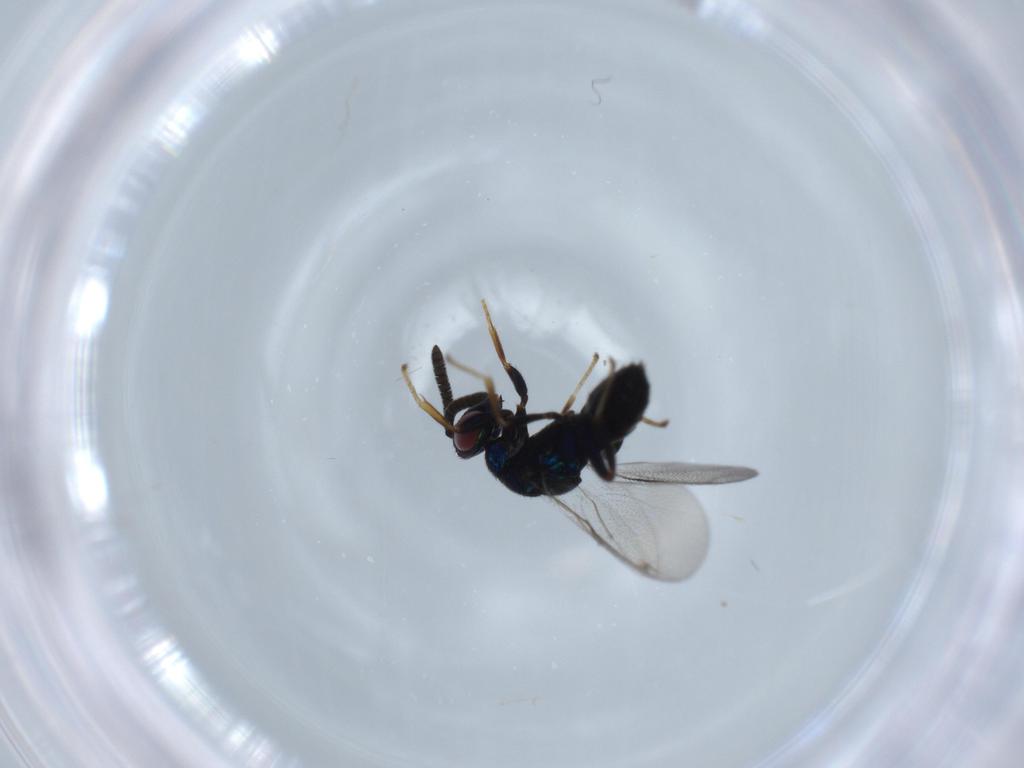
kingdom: Animalia
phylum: Arthropoda
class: Insecta
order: Hymenoptera
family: Torymidae
